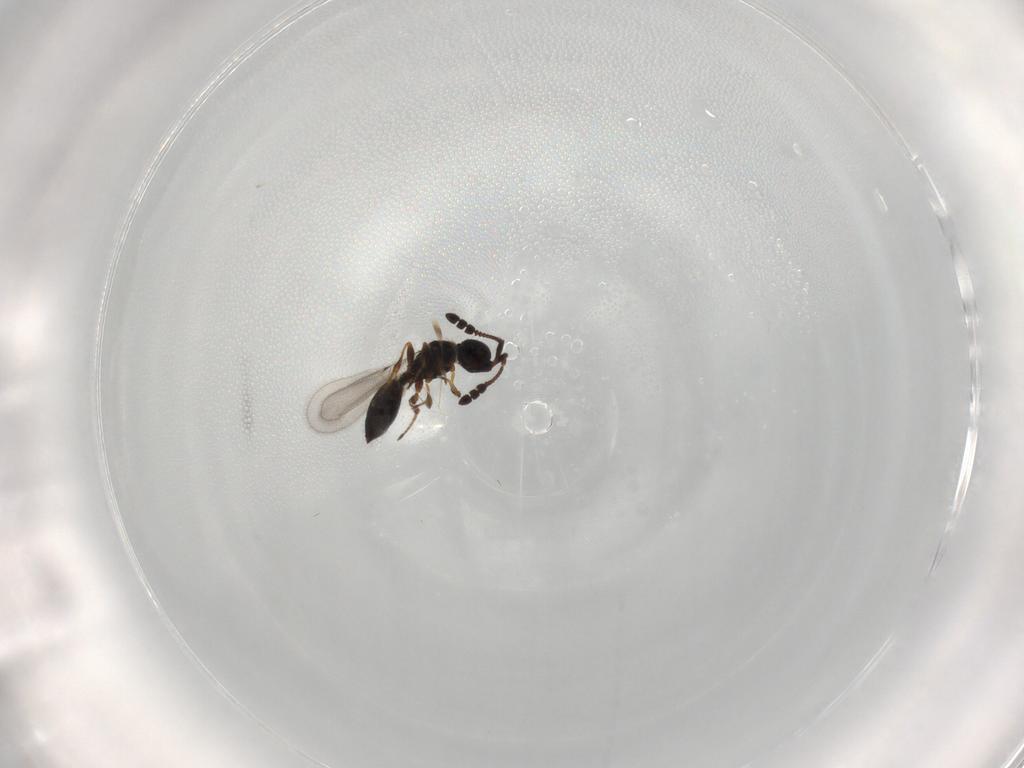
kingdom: Animalia
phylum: Arthropoda
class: Insecta
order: Hymenoptera
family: Diapriidae
